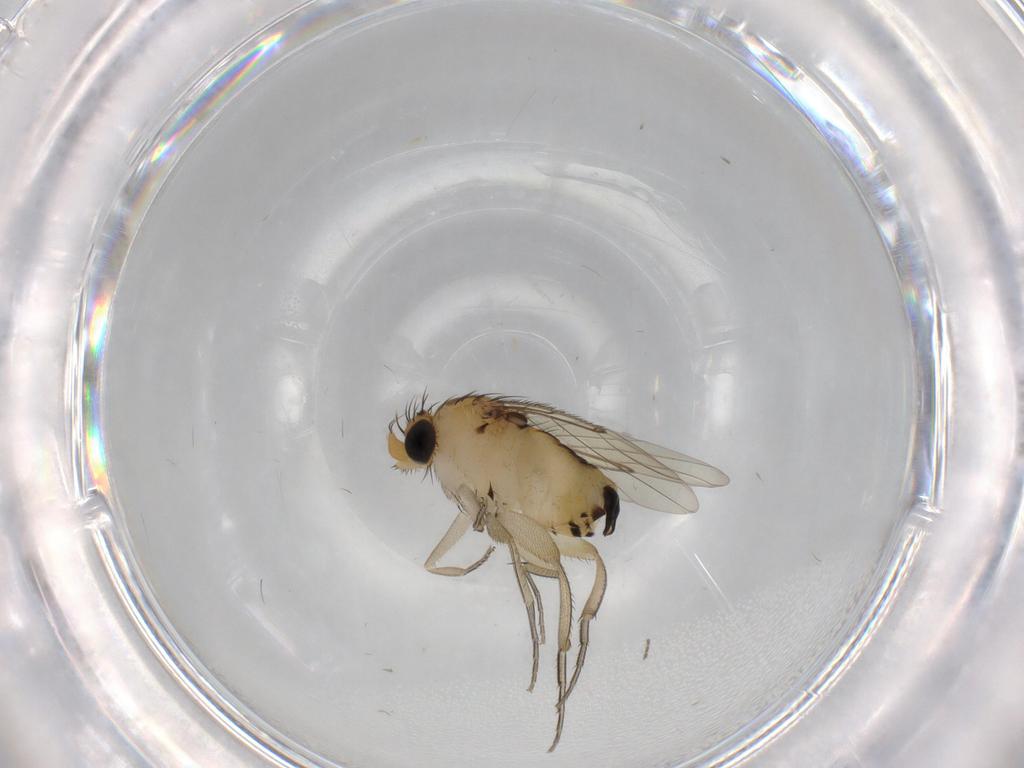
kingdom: Animalia
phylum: Arthropoda
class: Insecta
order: Diptera
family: Phoridae
